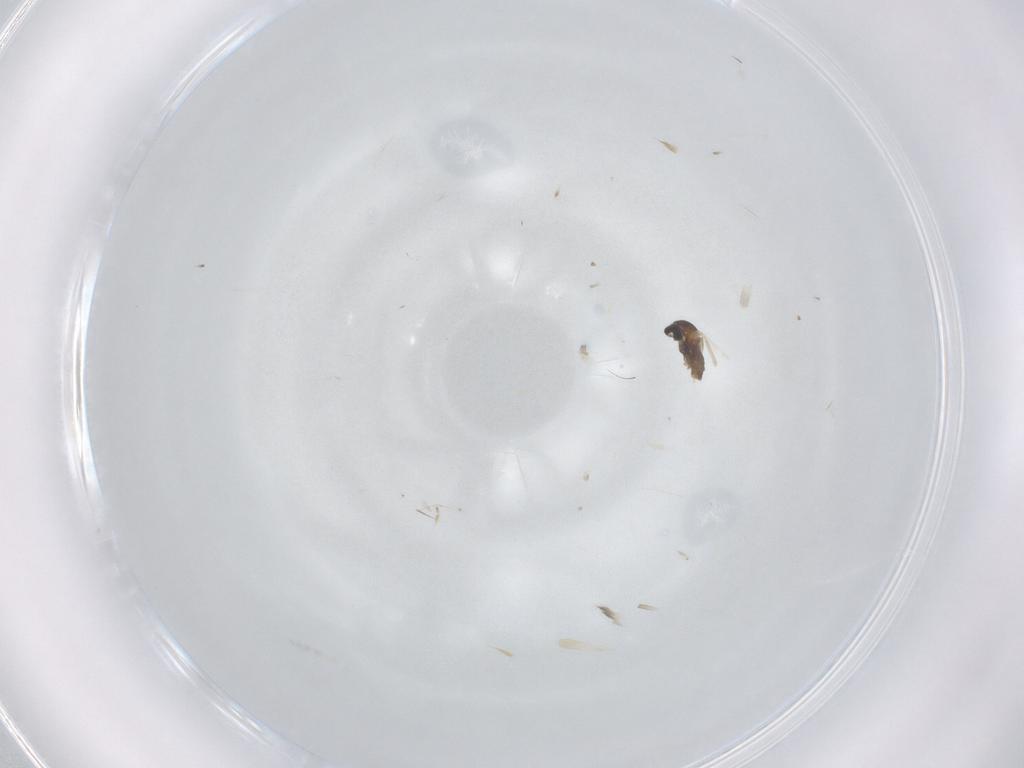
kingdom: Animalia
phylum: Arthropoda
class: Insecta
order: Diptera
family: Cecidomyiidae
